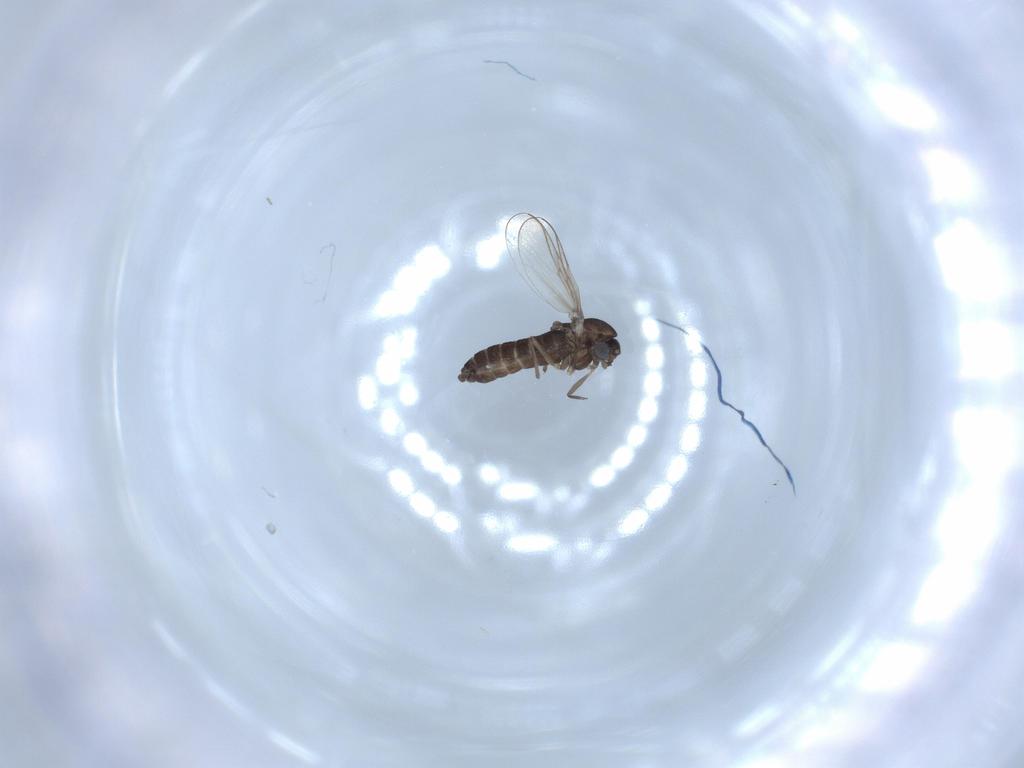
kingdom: Animalia
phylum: Arthropoda
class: Insecta
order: Diptera
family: Chironomidae
